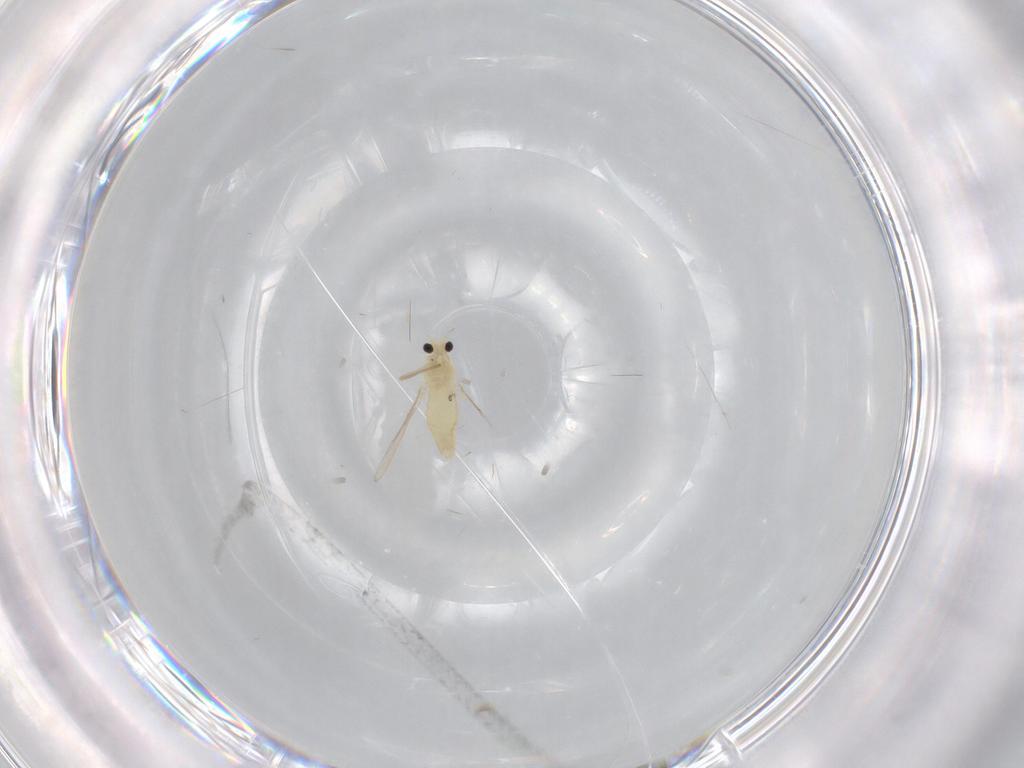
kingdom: Animalia
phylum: Arthropoda
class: Insecta
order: Diptera
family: Chironomidae
